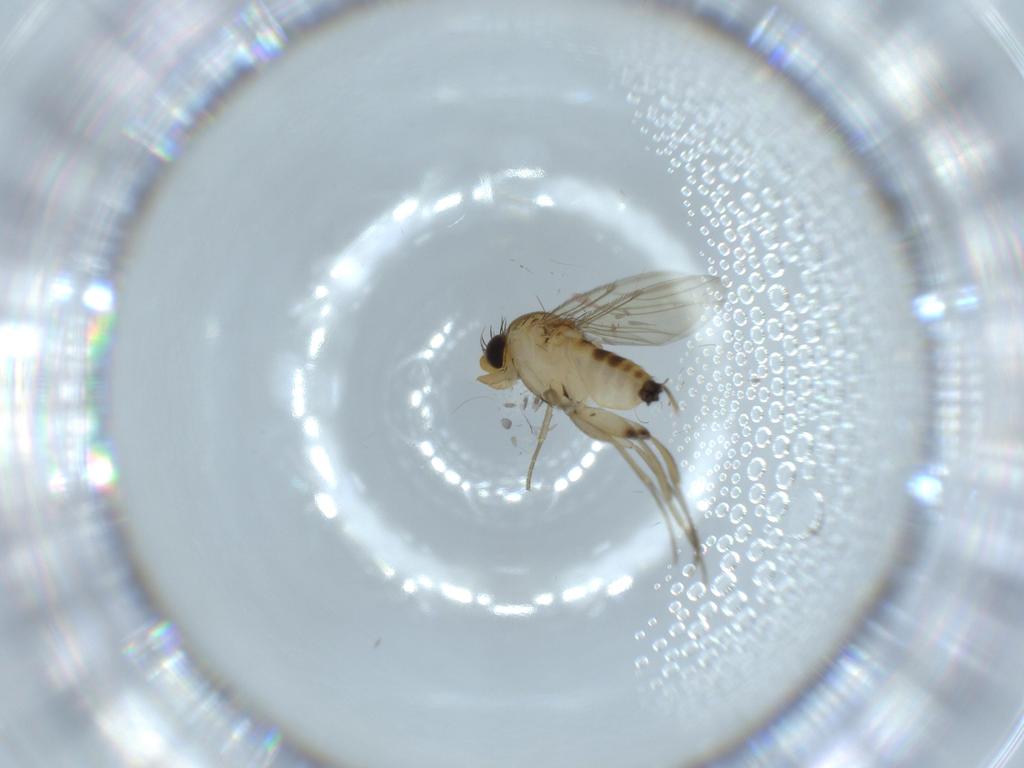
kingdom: Animalia
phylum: Arthropoda
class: Insecta
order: Diptera
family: Phoridae
